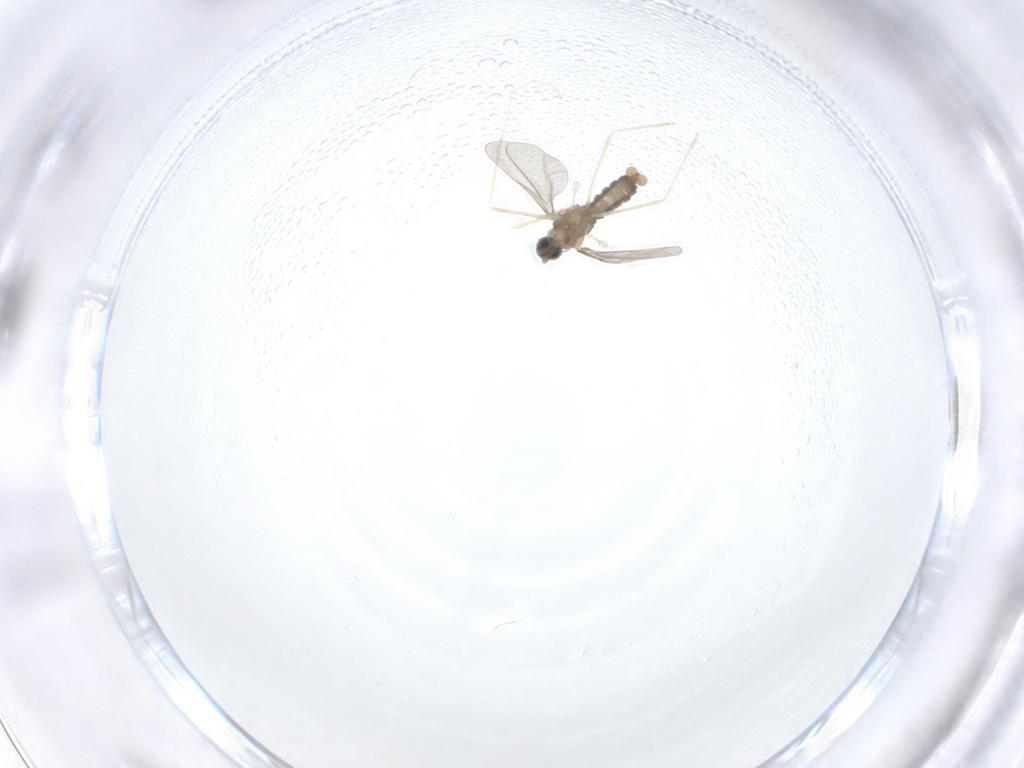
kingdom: Animalia
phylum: Arthropoda
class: Insecta
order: Diptera
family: Cecidomyiidae
